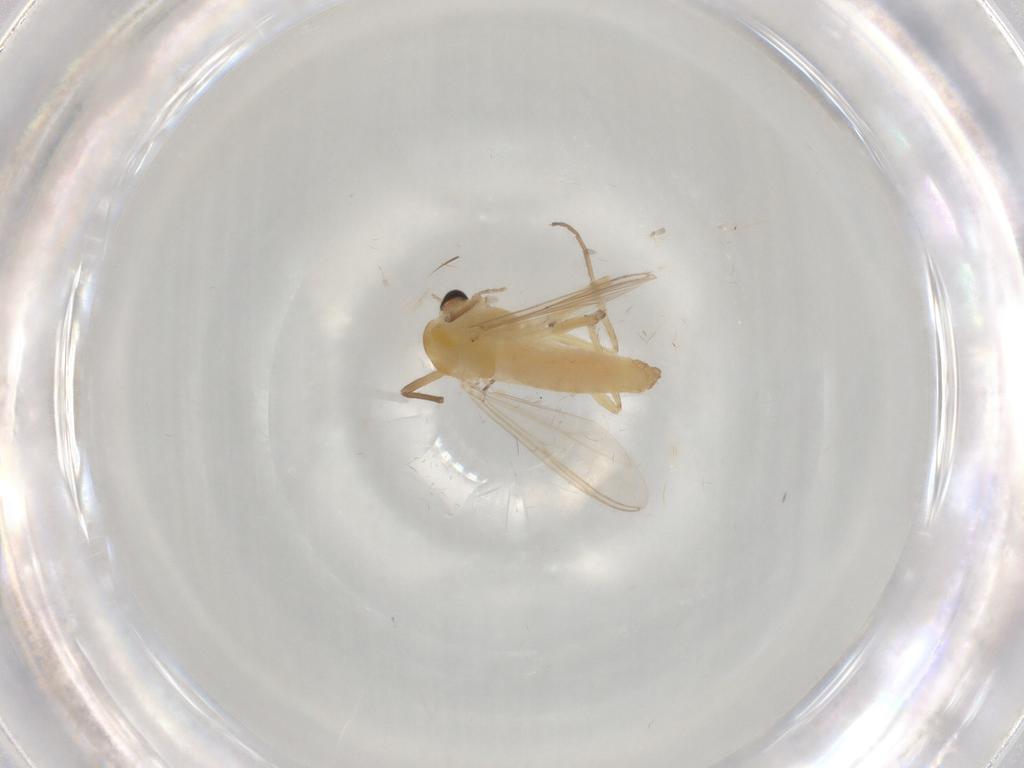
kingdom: Animalia
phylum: Arthropoda
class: Insecta
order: Diptera
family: Chironomidae
